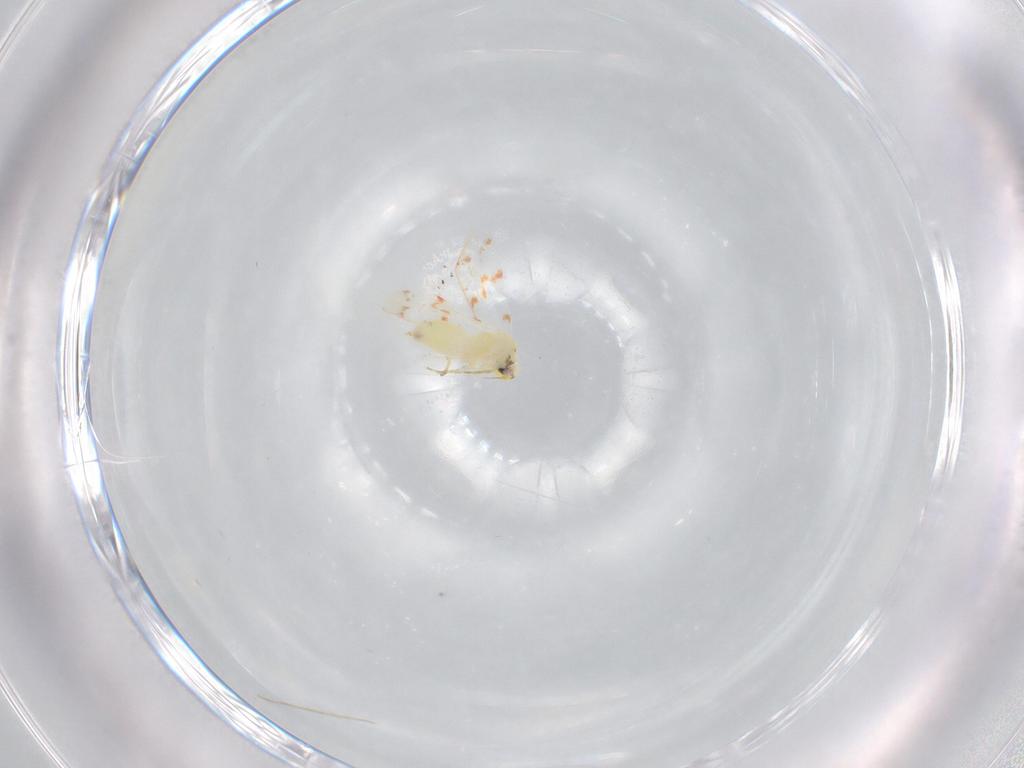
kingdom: Animalia
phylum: Arthropoda
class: Insecta
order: Hemiptera
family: Aleyrodidae
